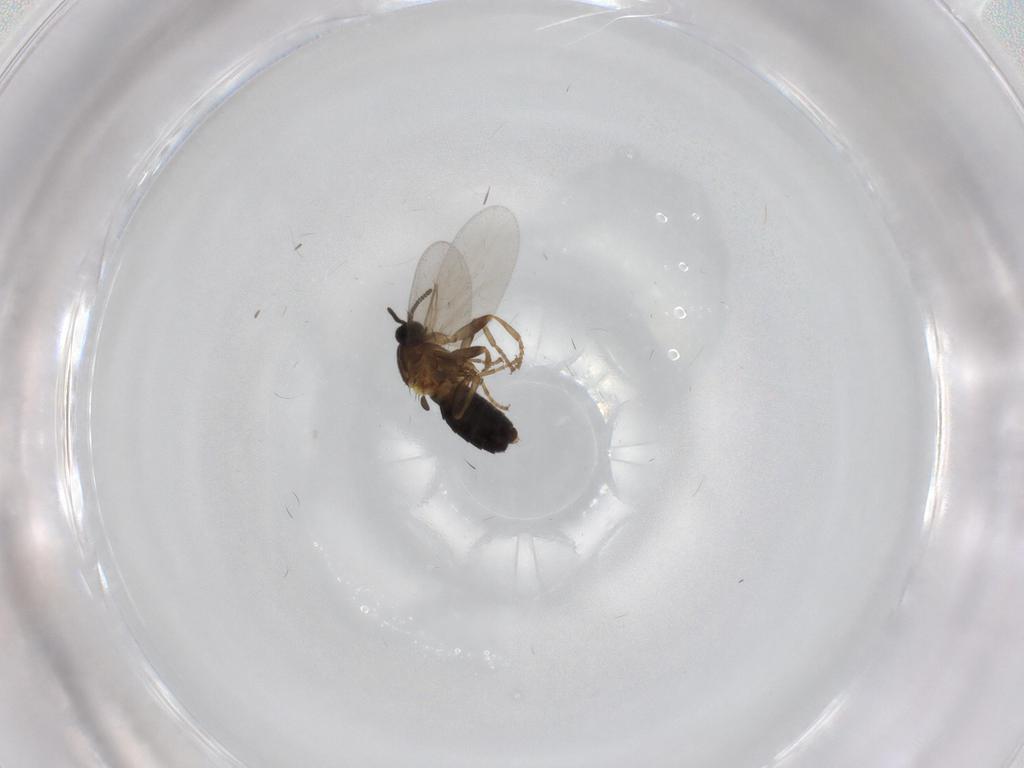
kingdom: Animalia
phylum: Arthropoda
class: Insecta
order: Diptera
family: Scatopsidae
